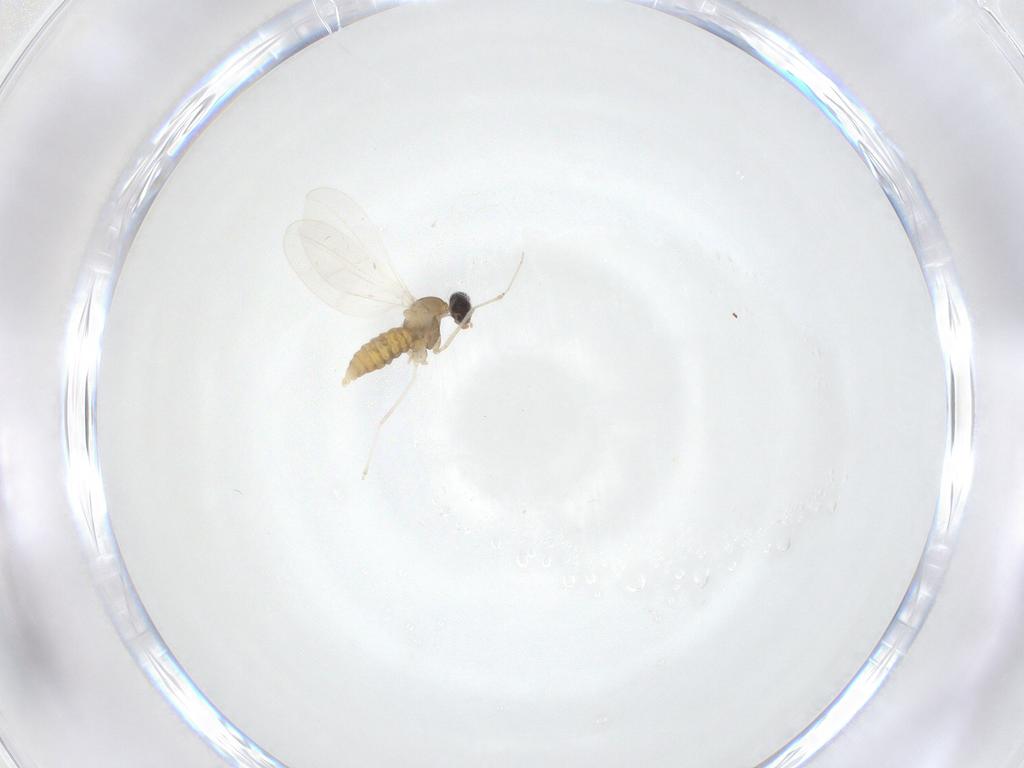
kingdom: Animalia
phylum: Arthropoda
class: Insecta
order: Diptera
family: Cecidomyiidae
